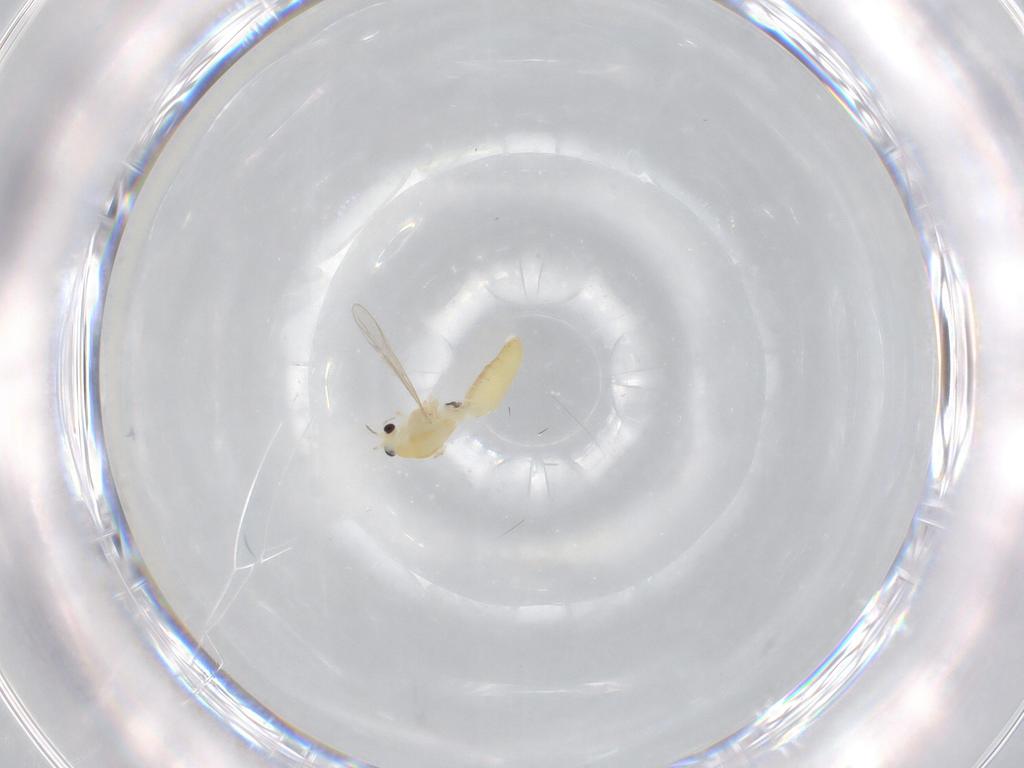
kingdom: Animalia
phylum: Arthropoda
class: Insecta
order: Diptera
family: Chironomidae
